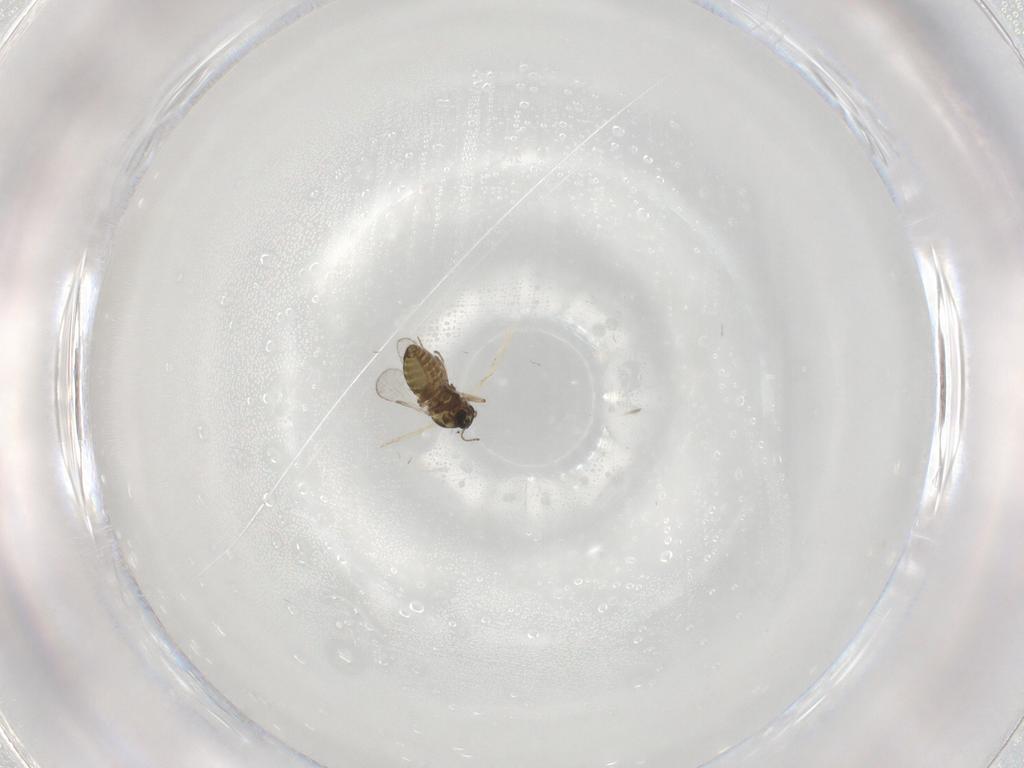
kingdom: Animalia
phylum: Arthropoda
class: Insecta
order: Diptera
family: Ceratopogonidae
